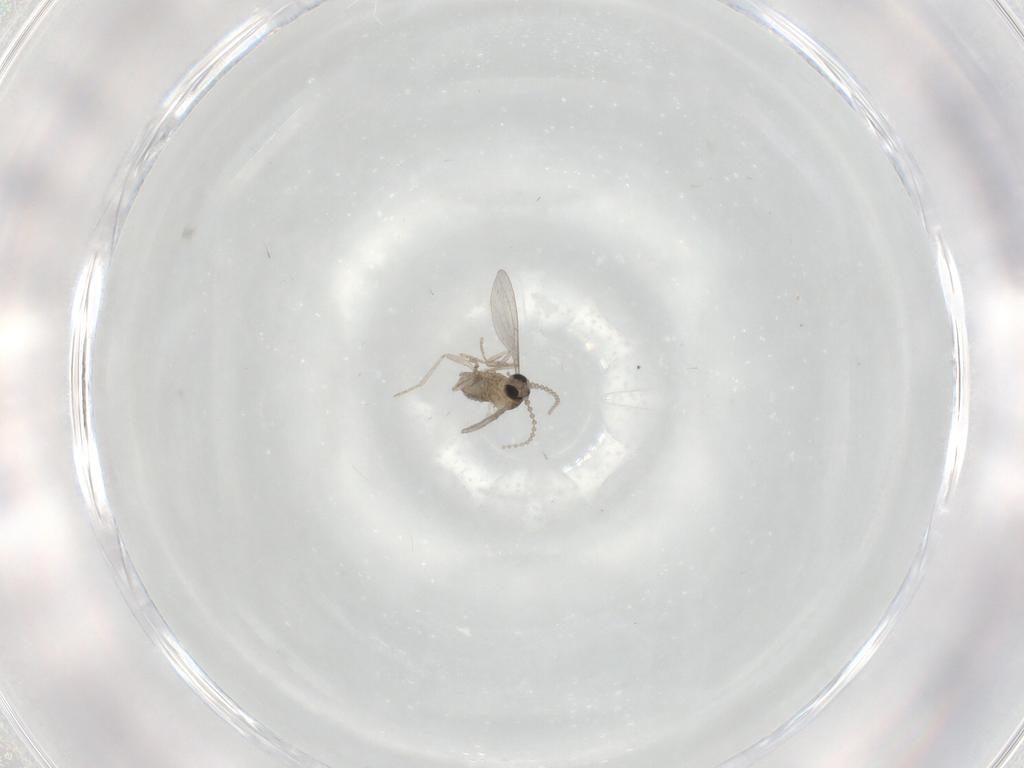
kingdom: Animalia
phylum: Arthropoda
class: Insecta
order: Diptera
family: Cecidomyiidae
